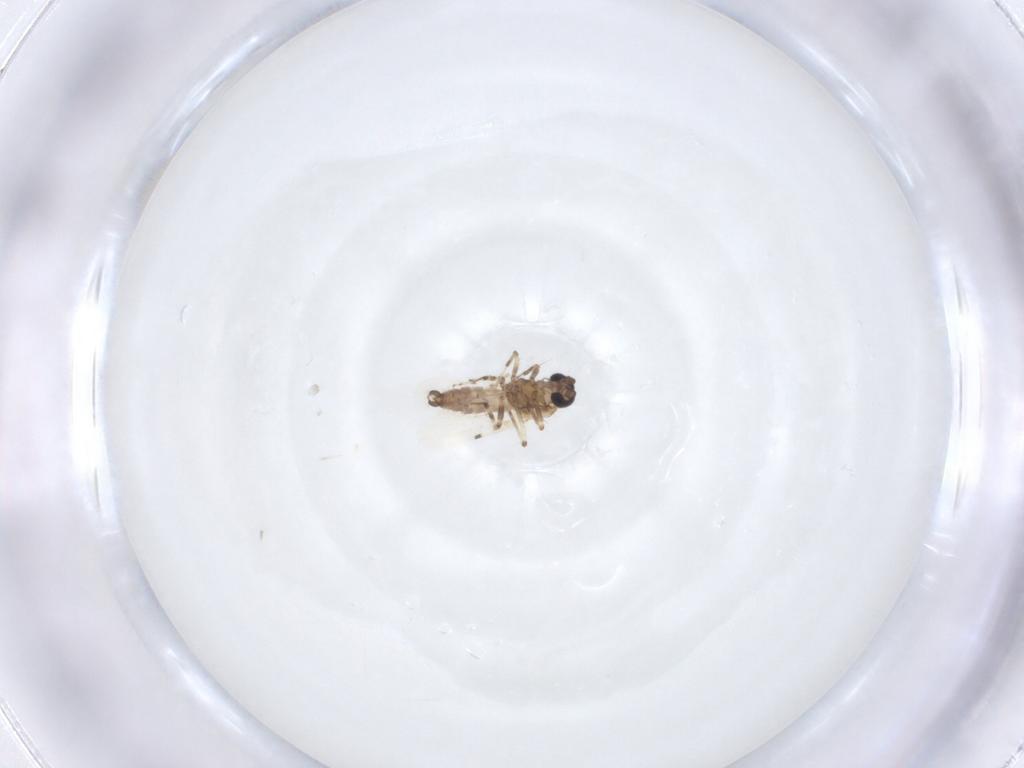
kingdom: Animalia
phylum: Arthropoda
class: Insecta
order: Diptera
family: Ceratopogonidae
